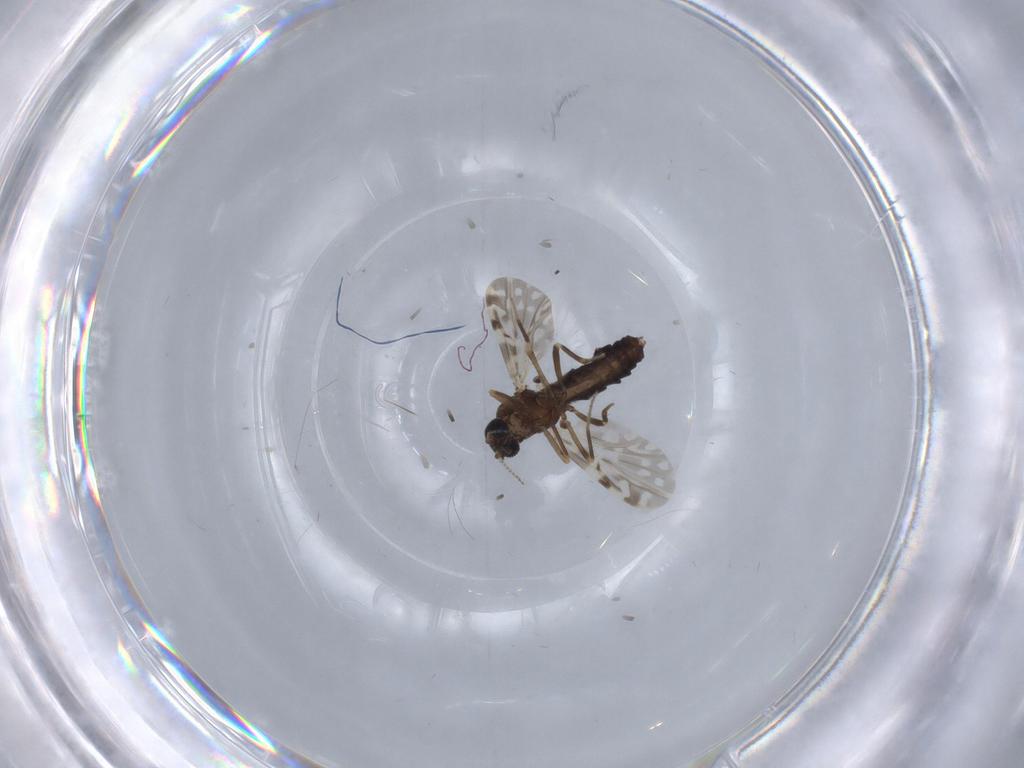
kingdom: Animalia
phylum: Arthropoda
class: Insecta
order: Diptera
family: Ceratopogonidae
